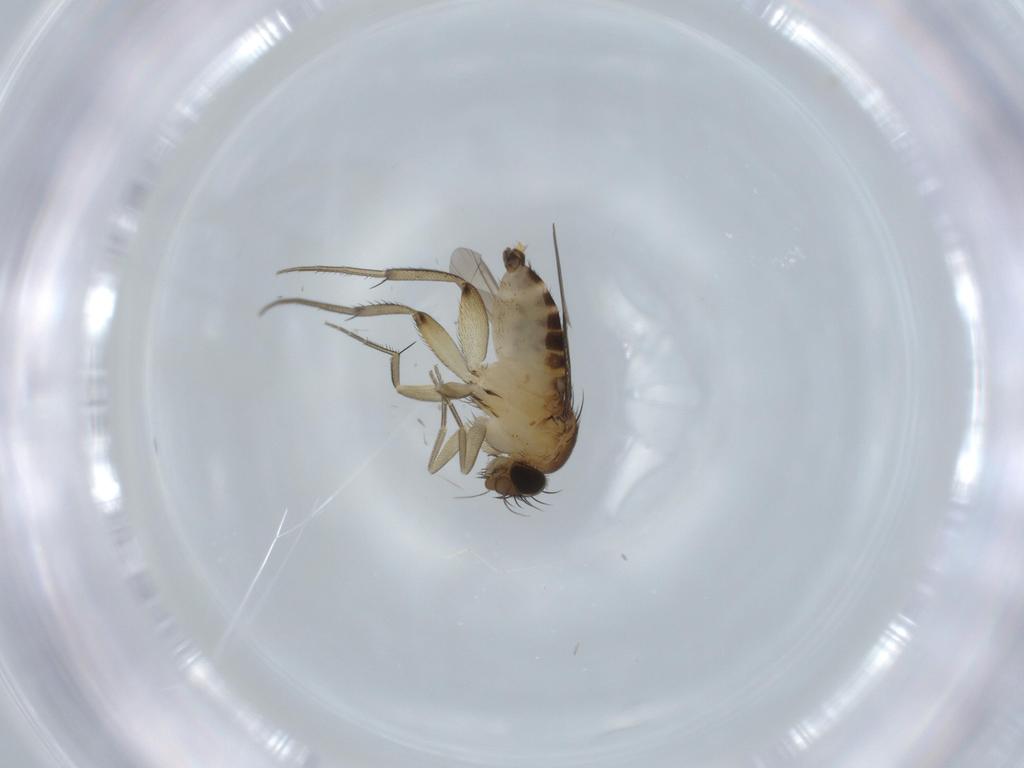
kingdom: Animalia
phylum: Arthropoda
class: Insecta
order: Diptera
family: Phoridae
